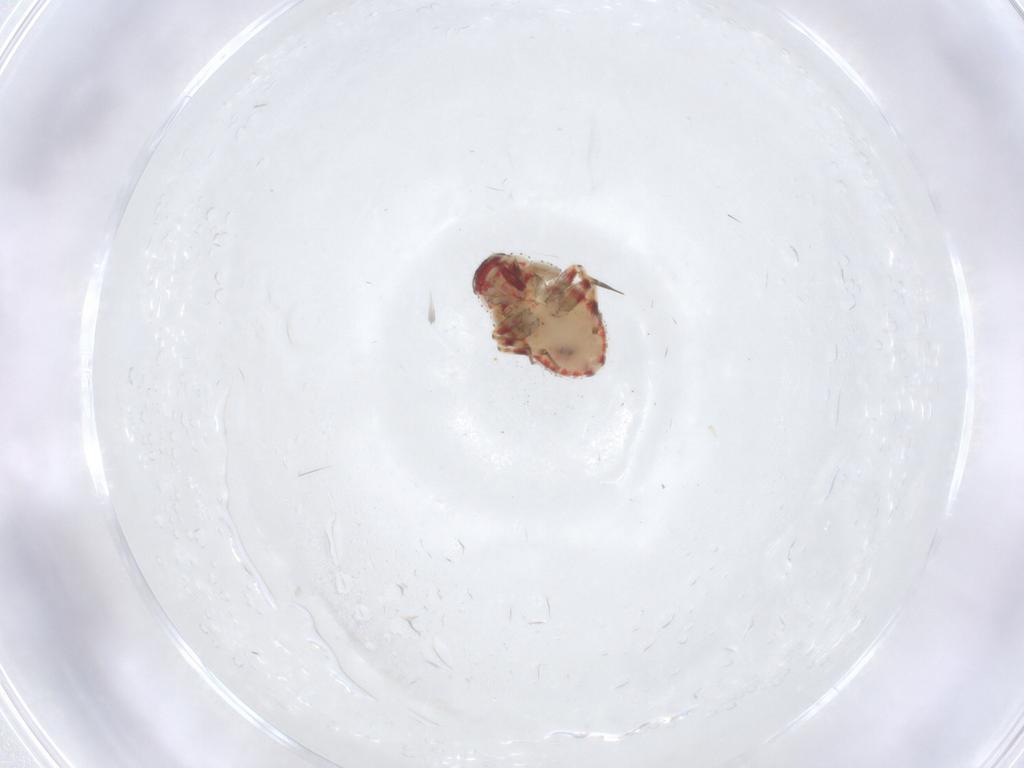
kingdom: Animalia
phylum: Arthropoda
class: Insecta
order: Hemiptera
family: Miridae
